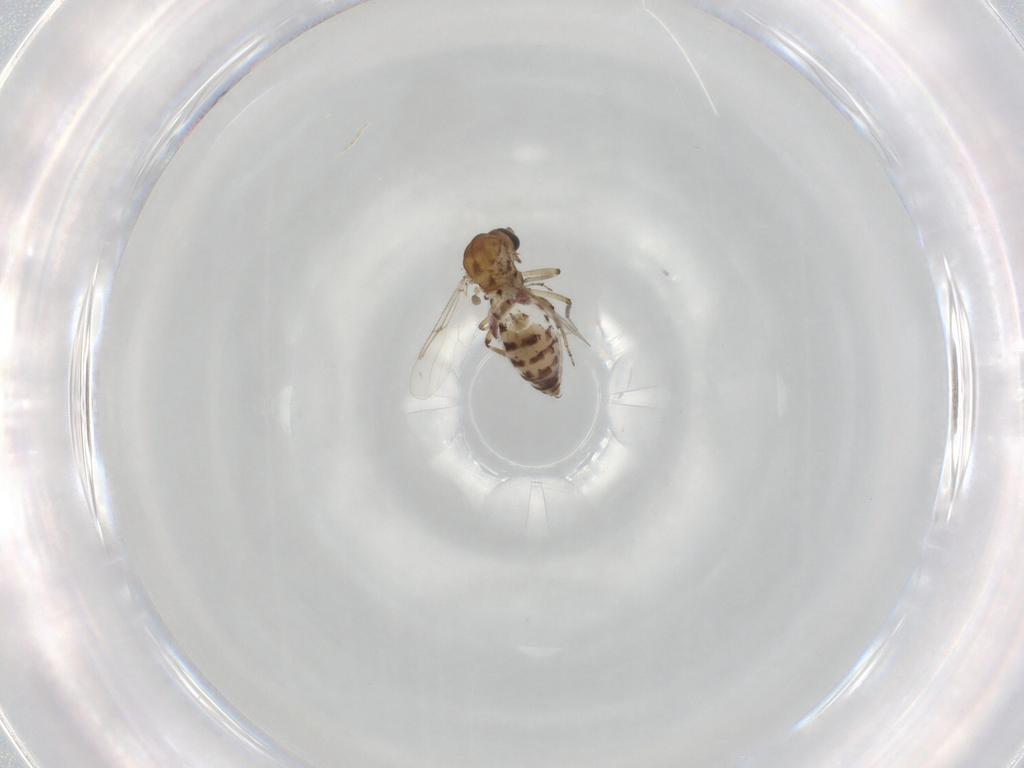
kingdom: Animalia
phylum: Arthropoda
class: Insecta
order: Diptera
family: Ceratopogonidae
